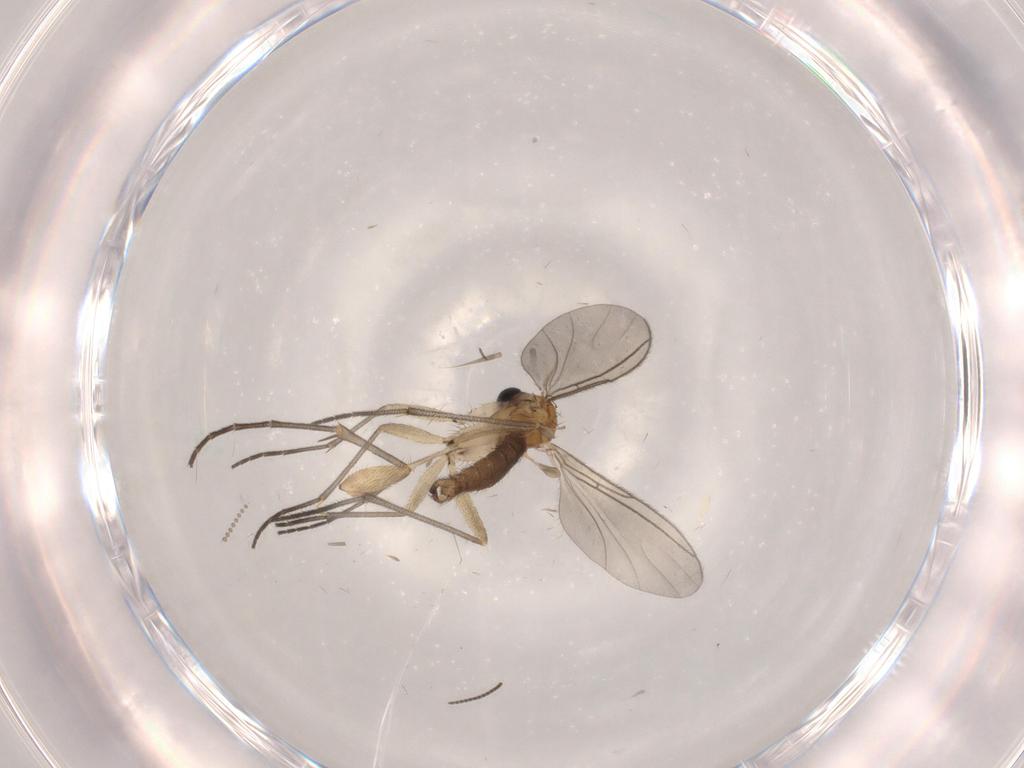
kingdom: Animalia
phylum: Arthropoda
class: Insecta
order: Diptera
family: Sciaridae
